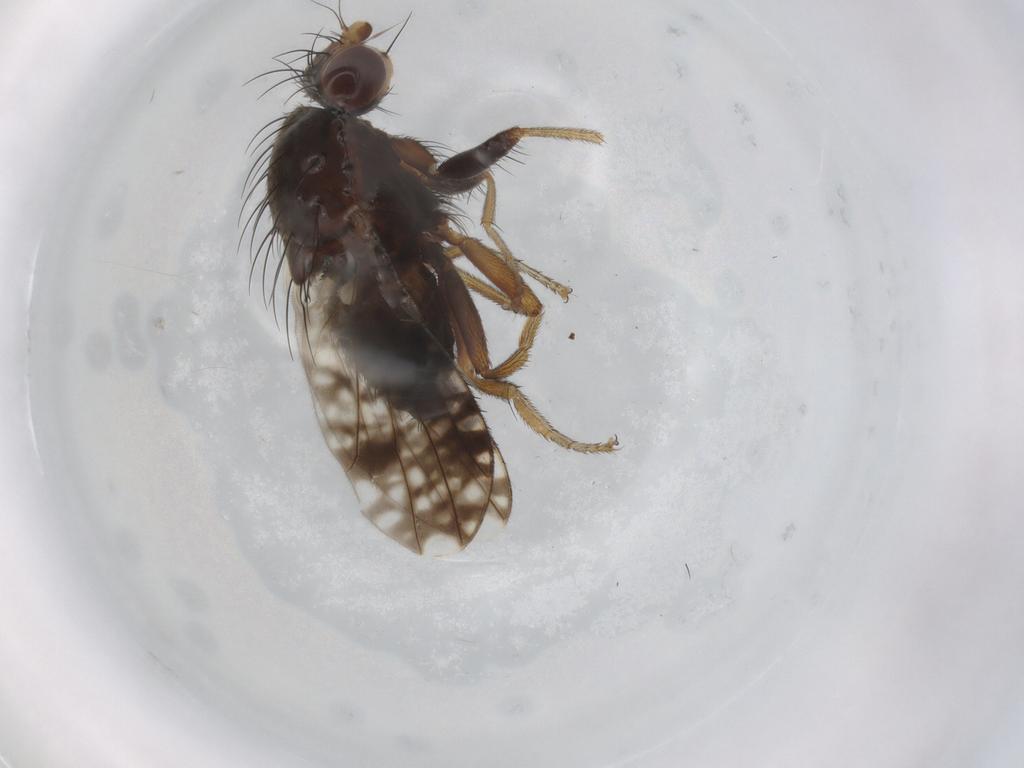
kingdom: Animalia
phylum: Arthropoda
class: Insecta
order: Diptera
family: Tephritidae
